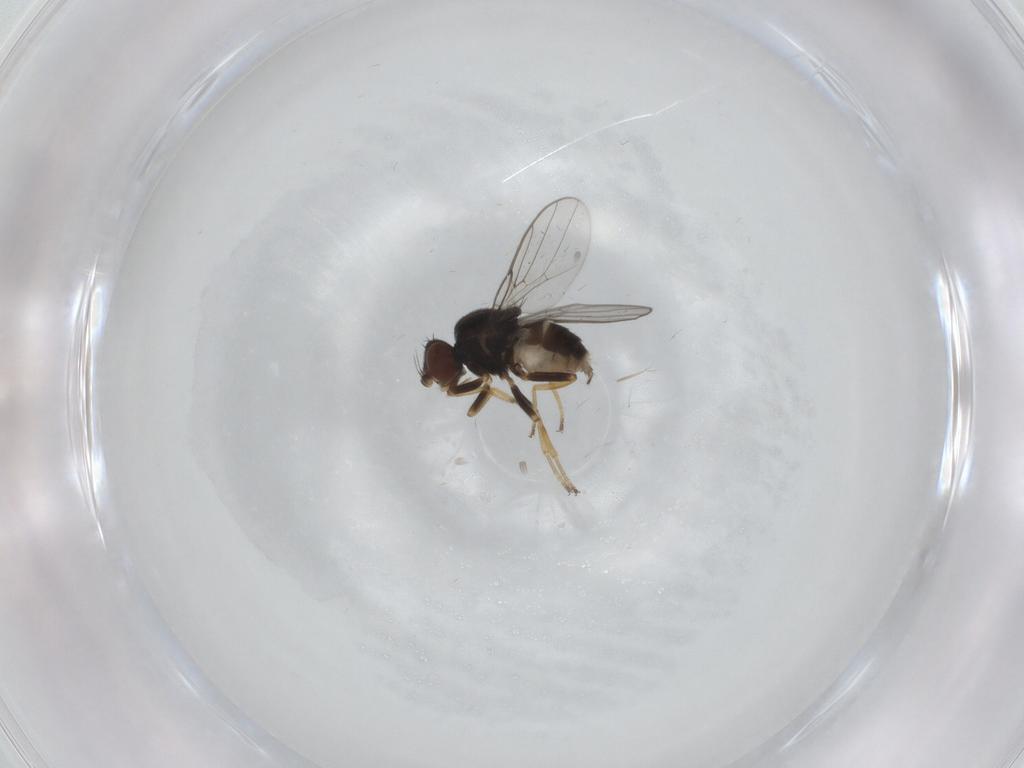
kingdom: Animalia
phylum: Arthropoda
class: Insecta
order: Diptera
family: Chloropidae
